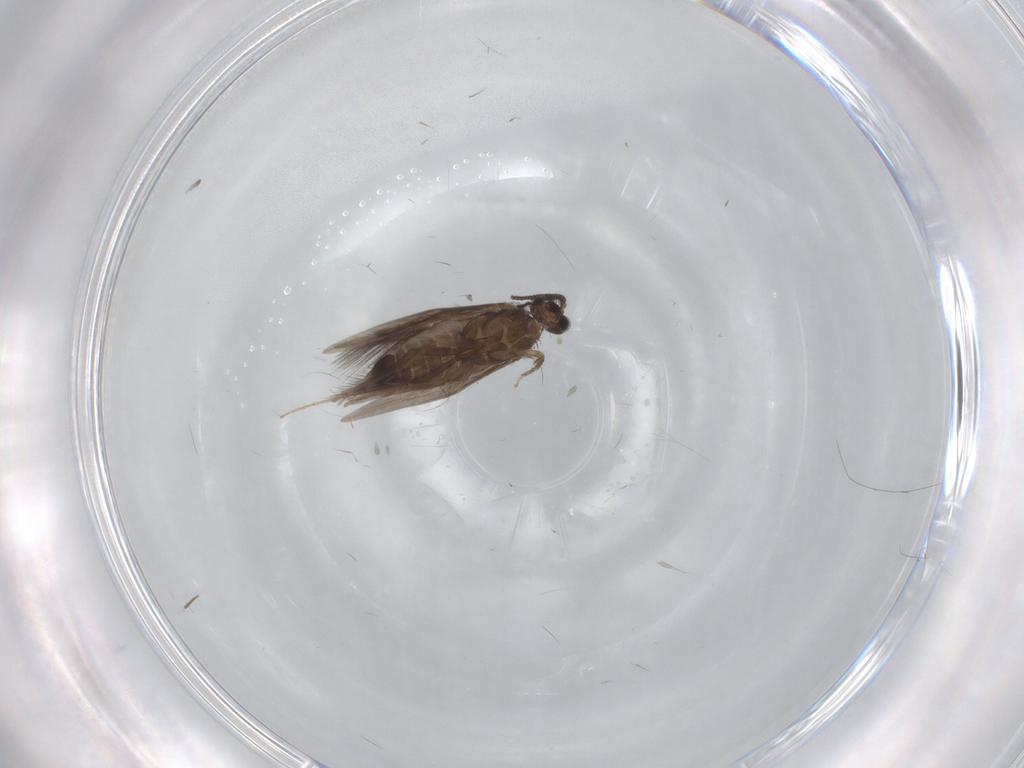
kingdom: Animalia
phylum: Arthropoda
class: Insecta
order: Trichoptera
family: Hydroptilidae
